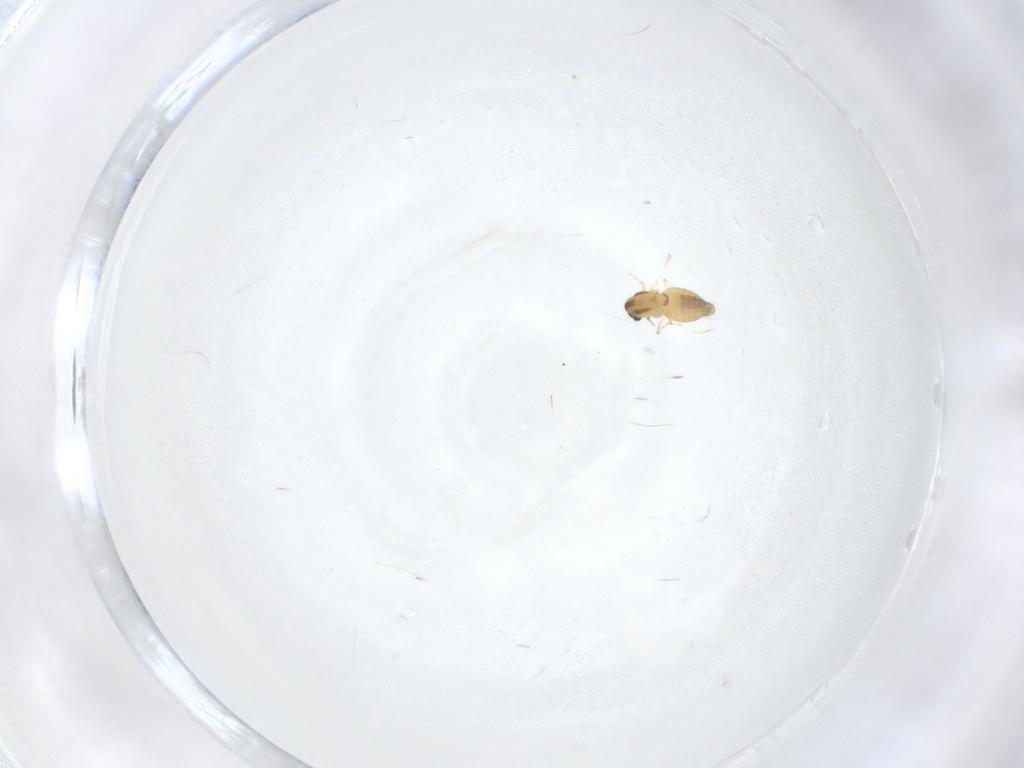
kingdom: Animalia
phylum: Arthropoda
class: Insecta
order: Diptera
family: Chironomidae
